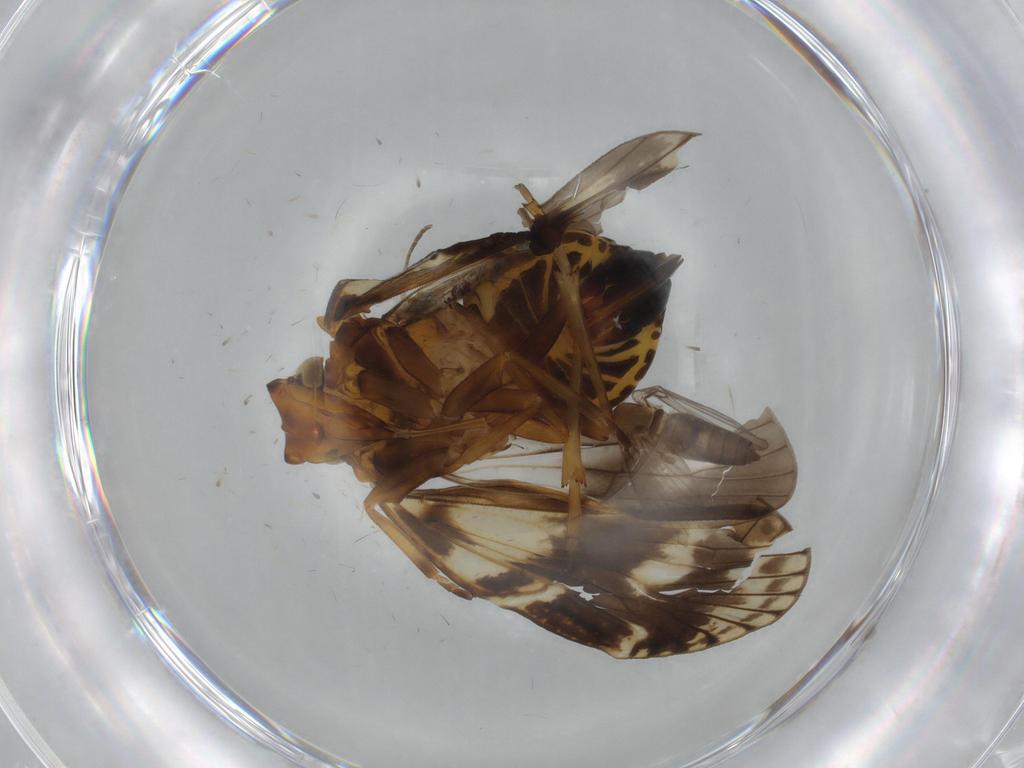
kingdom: Animalia
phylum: Arthropoda
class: Insecta
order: Hemiptera
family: Cixiidae
